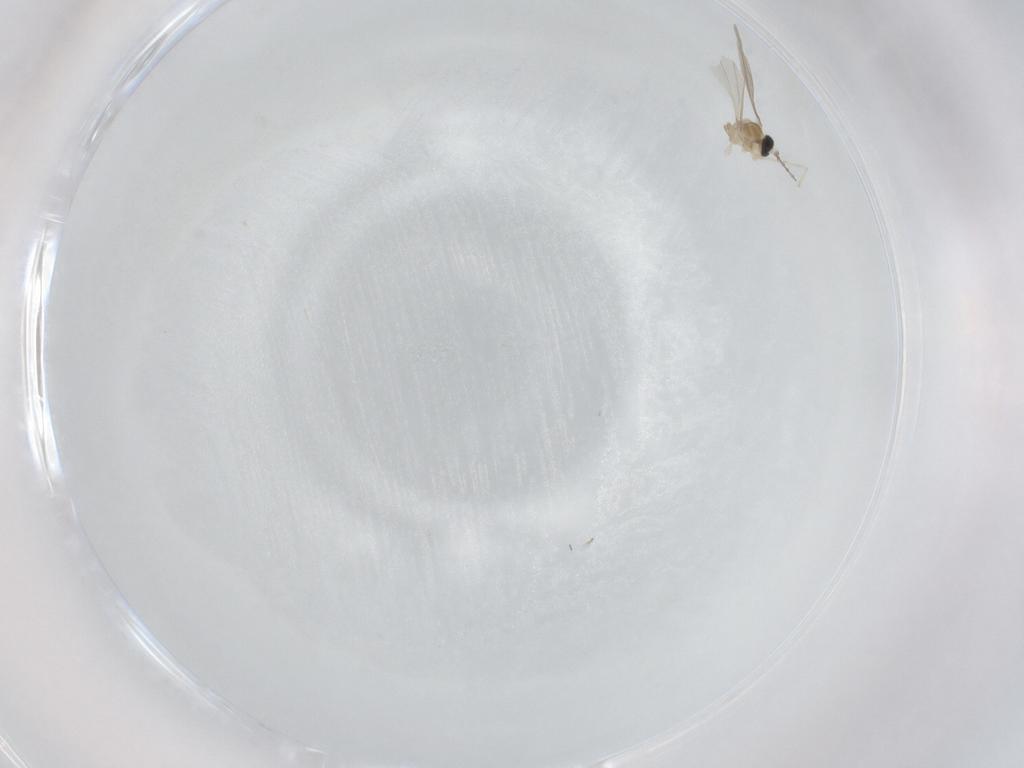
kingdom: Animalia
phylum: Arthropoda
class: Insecta
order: Diptera
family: Cecidomyiidae
